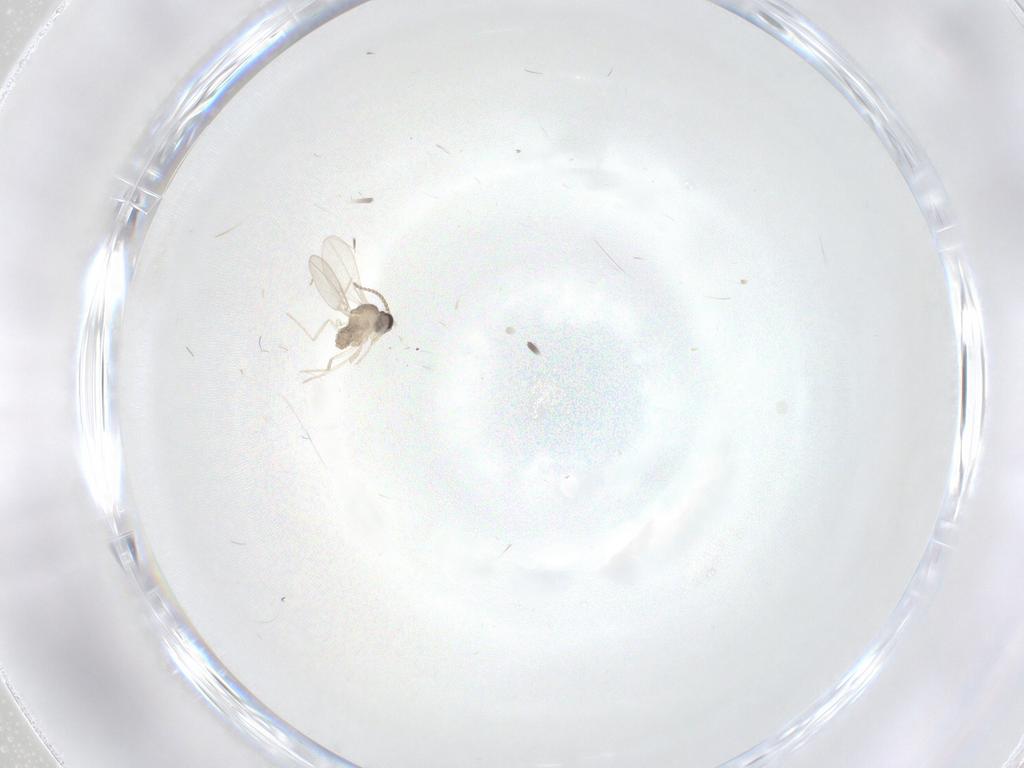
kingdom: Animalia
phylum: Arthropoda
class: Insecta
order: Diptera
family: Cecidomyiidae
